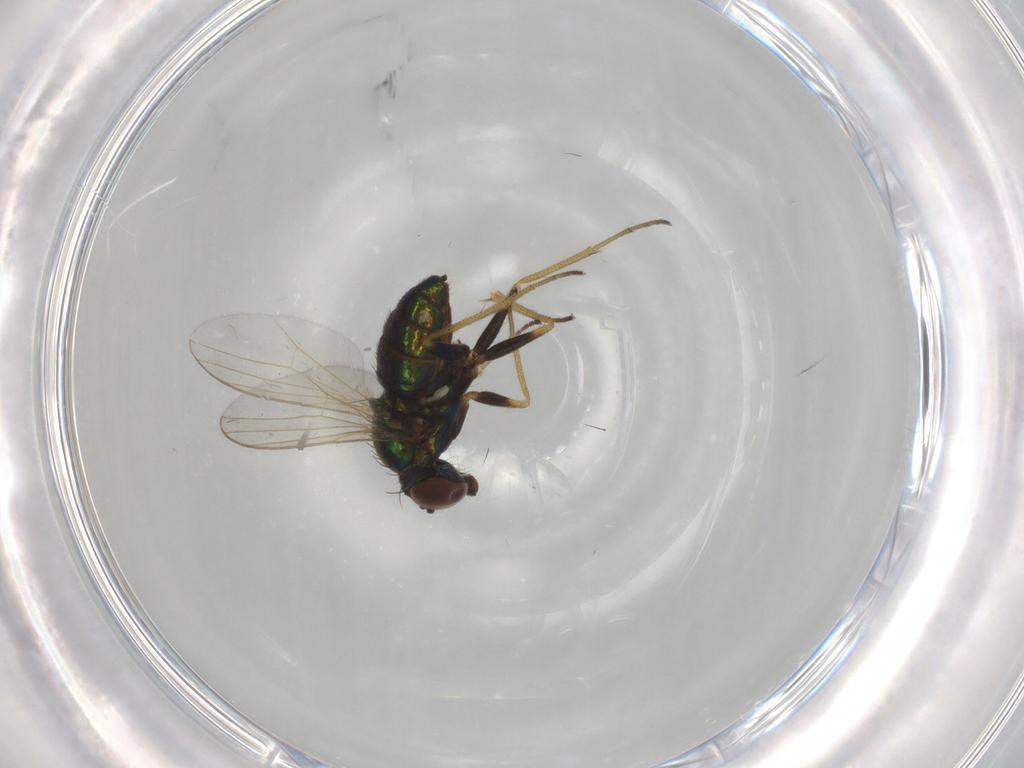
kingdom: Animalia
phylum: Arthropoda
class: Insecta
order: Diptera
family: Dolichopodidae
